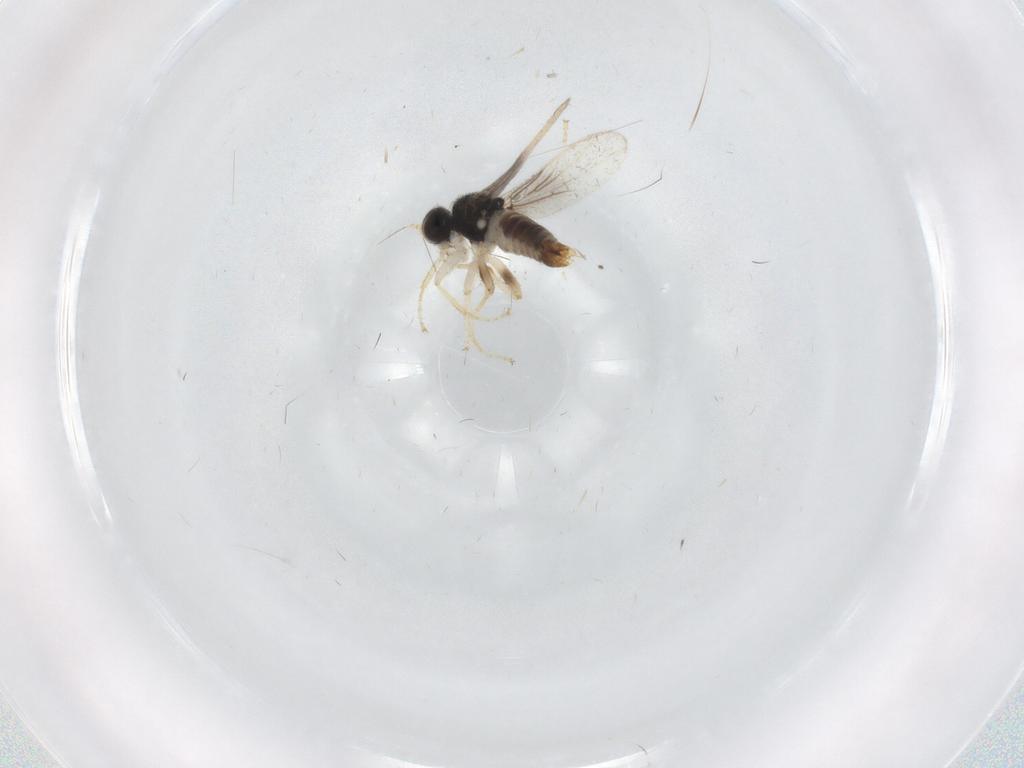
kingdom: Animalia
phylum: Arthropoda
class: Insecta
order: Diptera
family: Hybotidae
